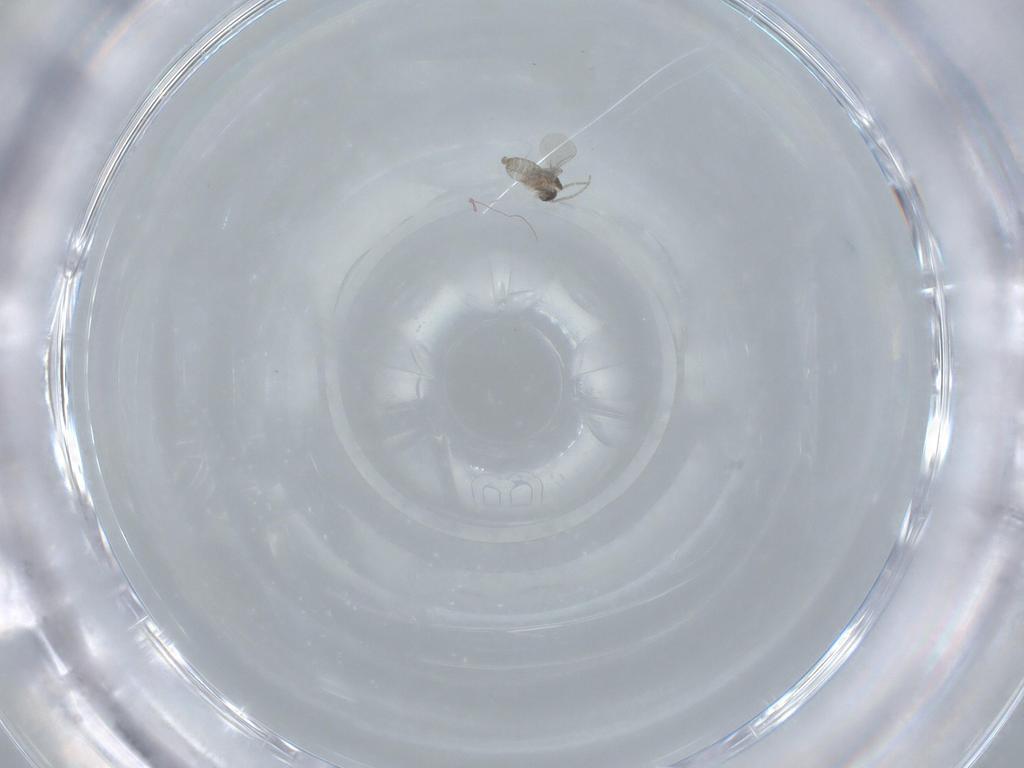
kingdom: Animalia
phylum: Arthropoda
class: Insecta
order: Diptera
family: Cecidomyiidae
